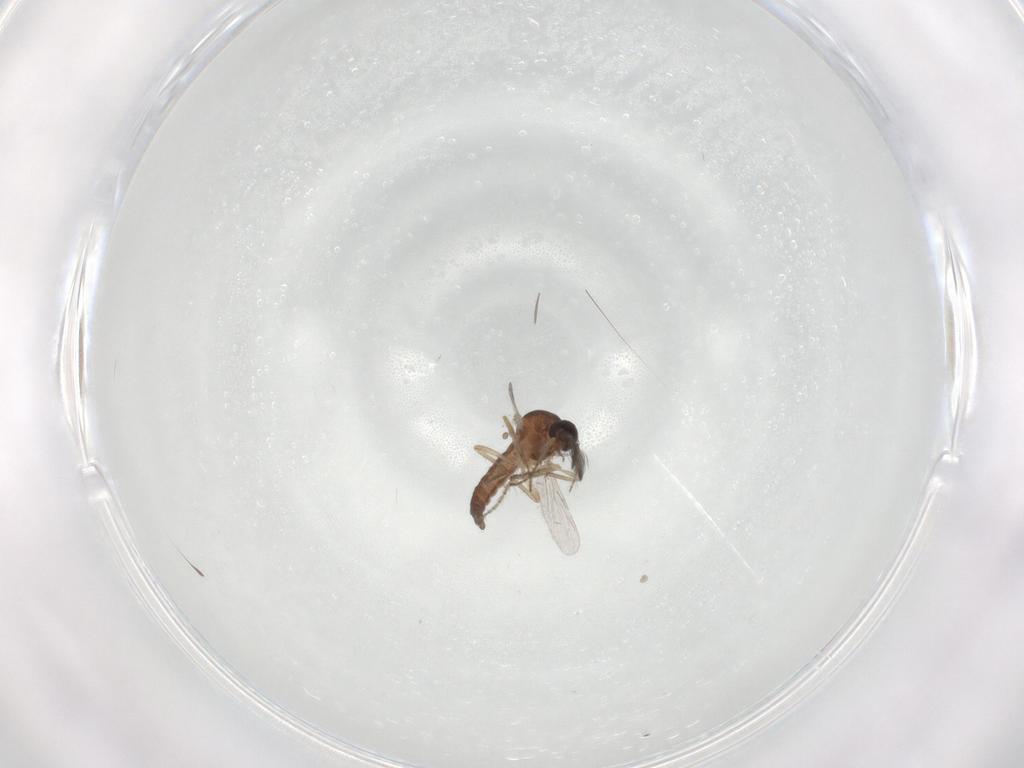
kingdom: Animalia
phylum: Arthropoda
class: Insecta
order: Diptera
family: Ceratopogonidae
